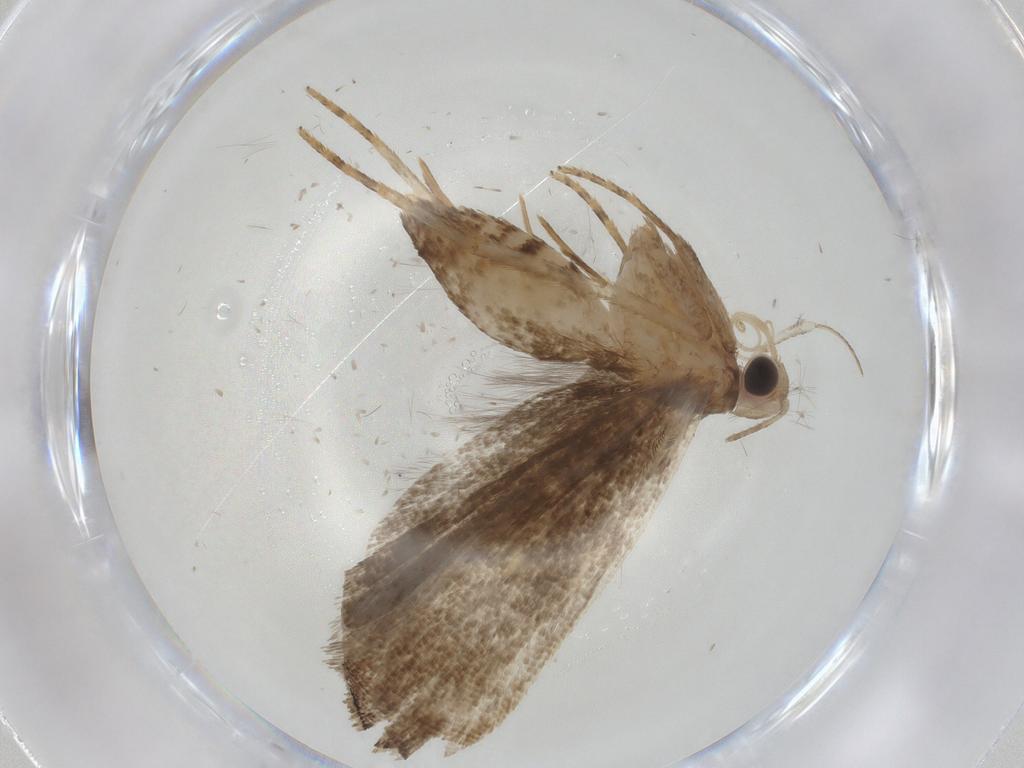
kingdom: Animalia
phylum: Arthropoda
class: Insecta
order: Lepidoptera
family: Gelechiidae
